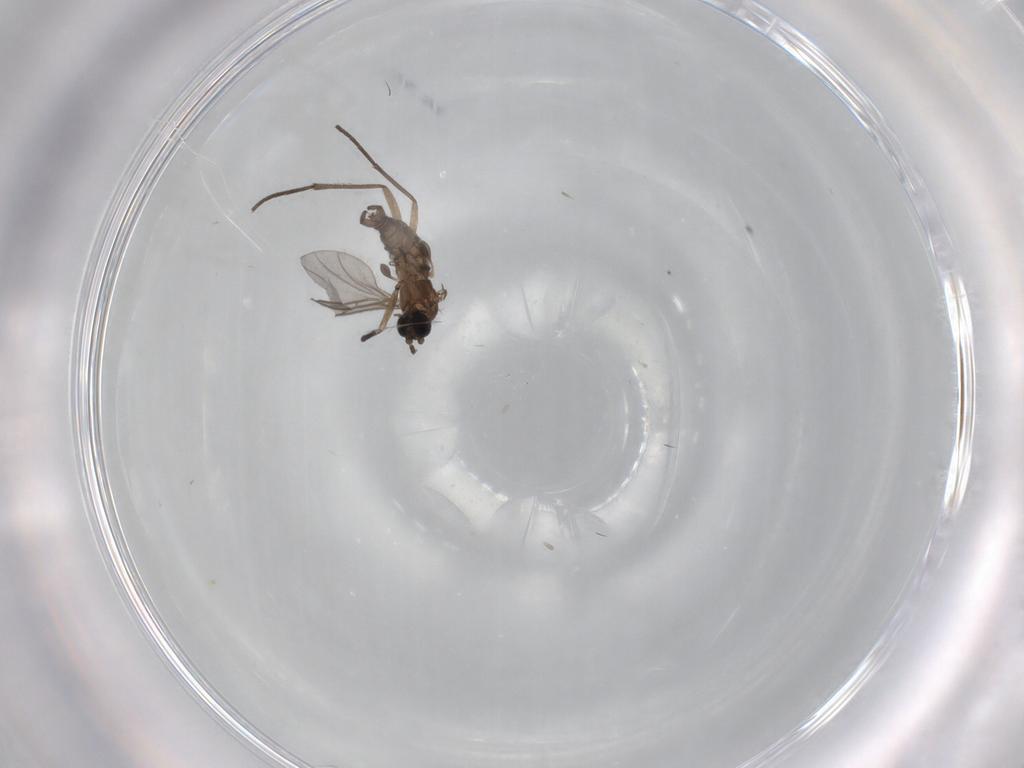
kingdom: Animalia
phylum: Arthropoda
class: Insecta
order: Diptera
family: Sciaridae
